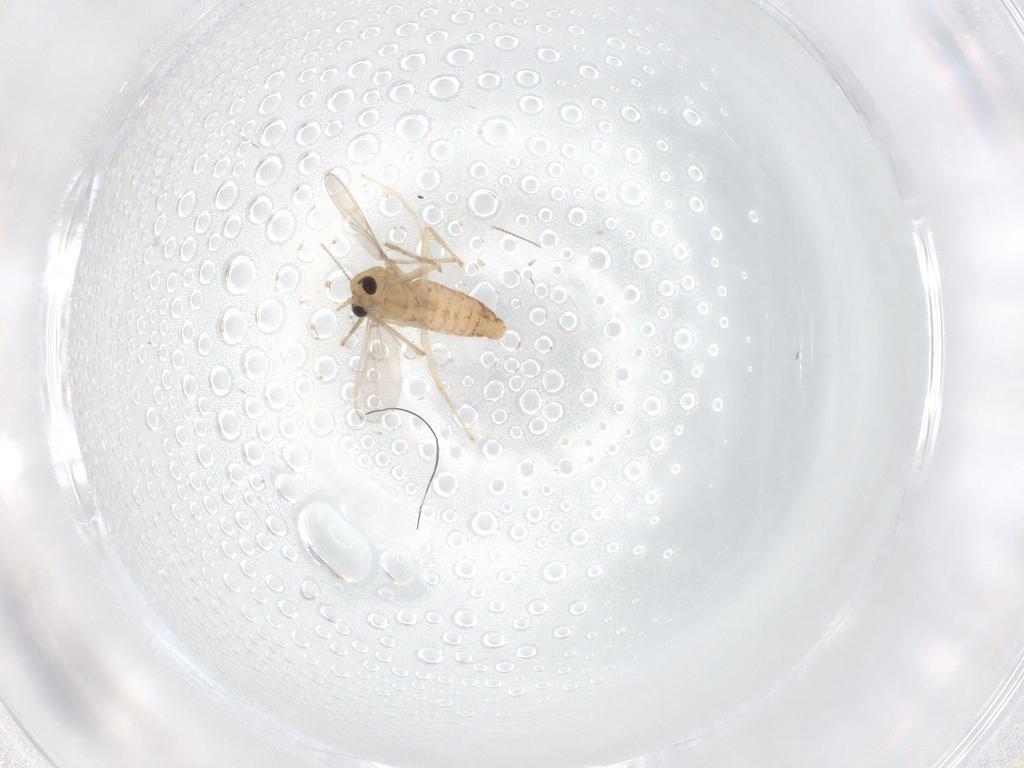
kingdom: Animalia
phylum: Arthropoda
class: Insecta
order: Diptera
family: Chironomidae
